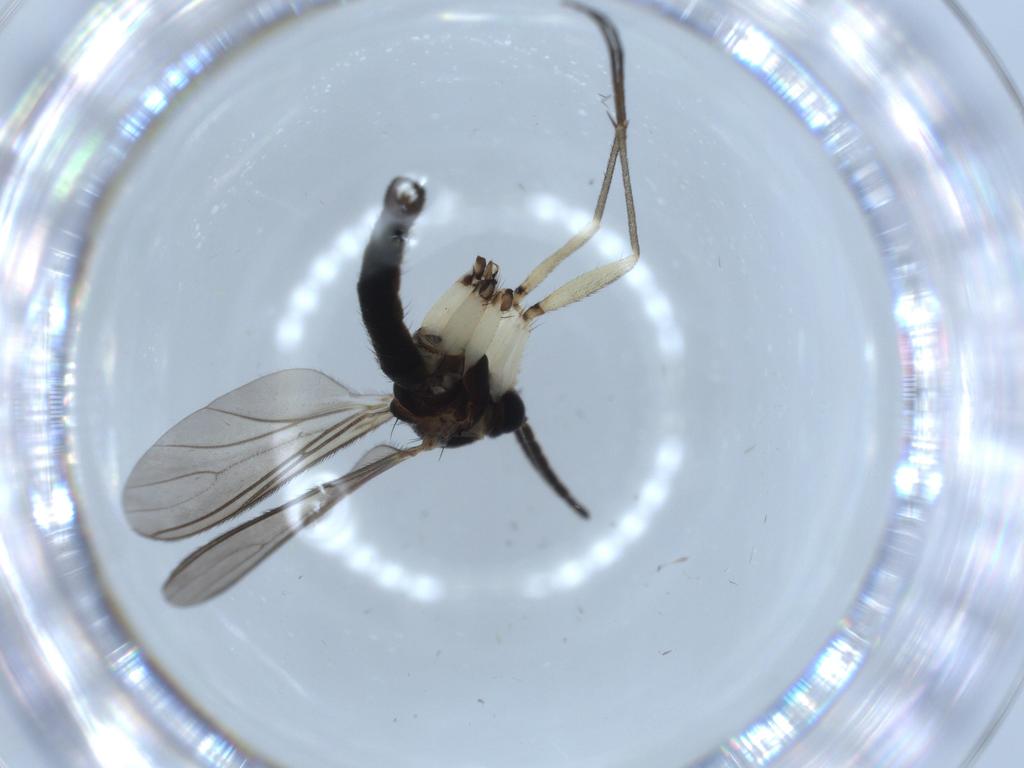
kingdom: Animalia
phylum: Arthropoda
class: Insecta
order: Diptera
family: Sciaridae
